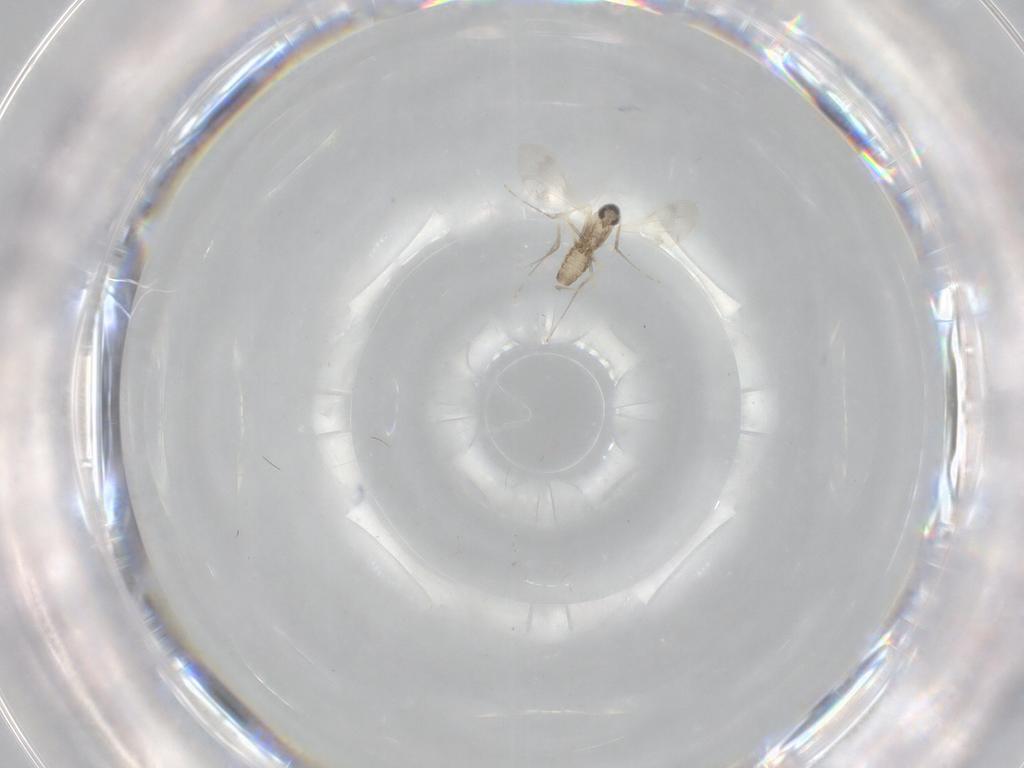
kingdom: Animalia
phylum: Arthropoda
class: Insecta
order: Diptera
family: Cecidomyiidae
